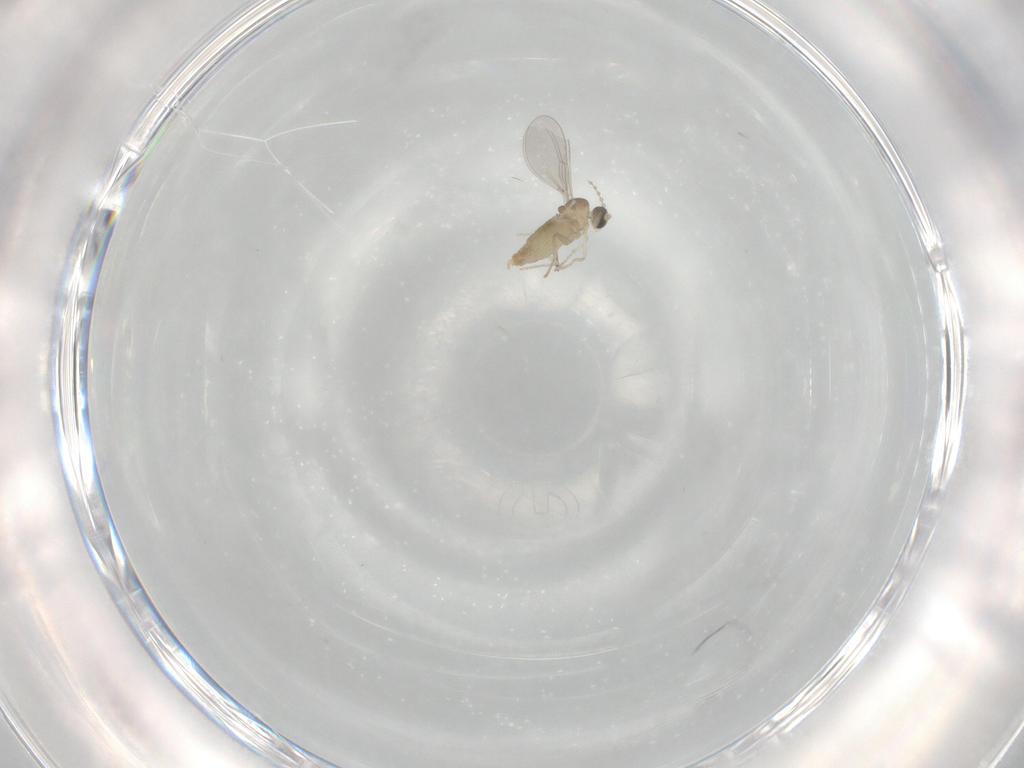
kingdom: Animalia
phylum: Arthropoda
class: Insecta
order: Diptera
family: Cecidomyiidae
